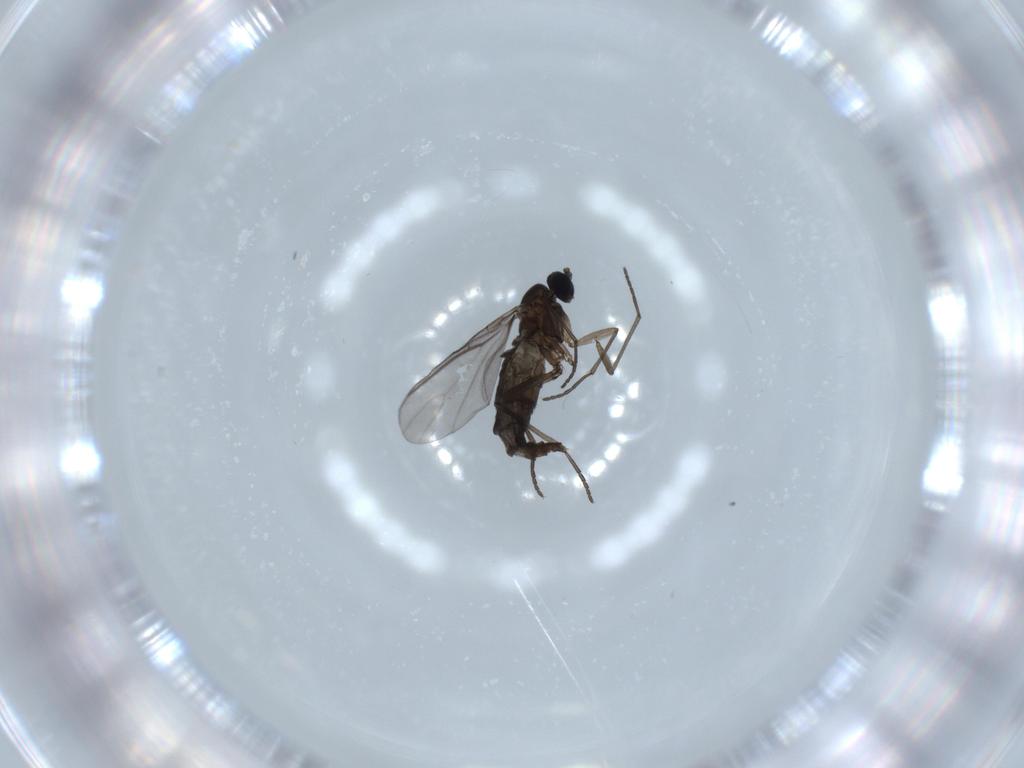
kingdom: Animalia
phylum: Arthropoda
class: Insecta
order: Diptera
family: Sciaridae
